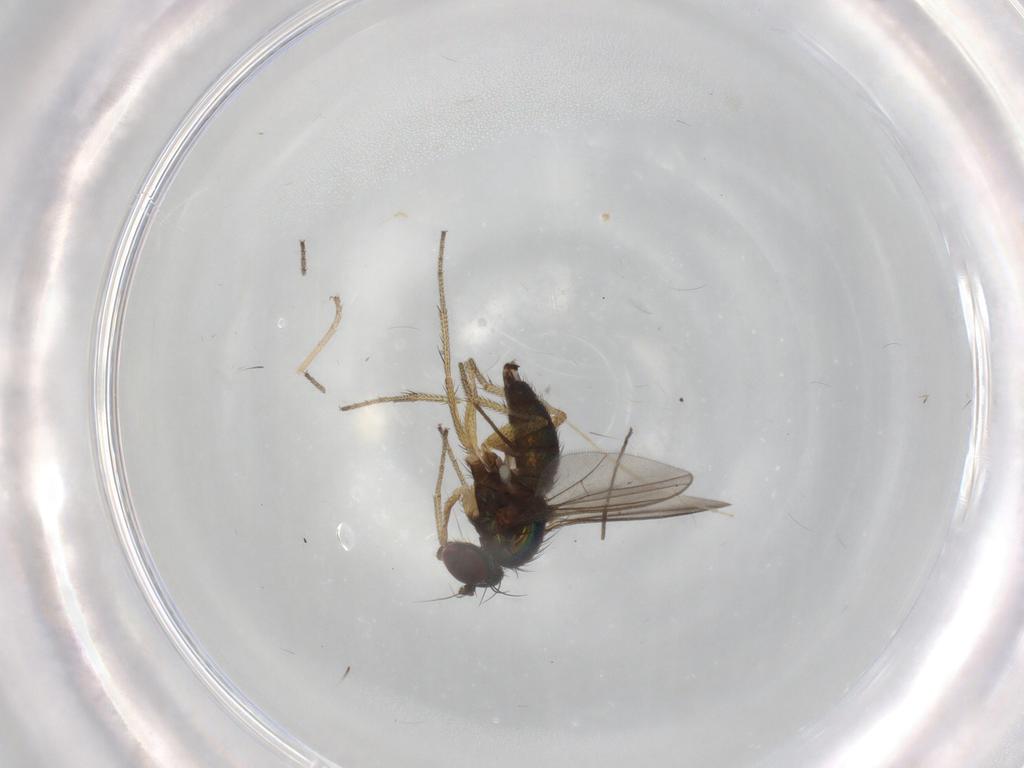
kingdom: Animalia
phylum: Arthropoda
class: Insecta
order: Diptera
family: Chironomidae
